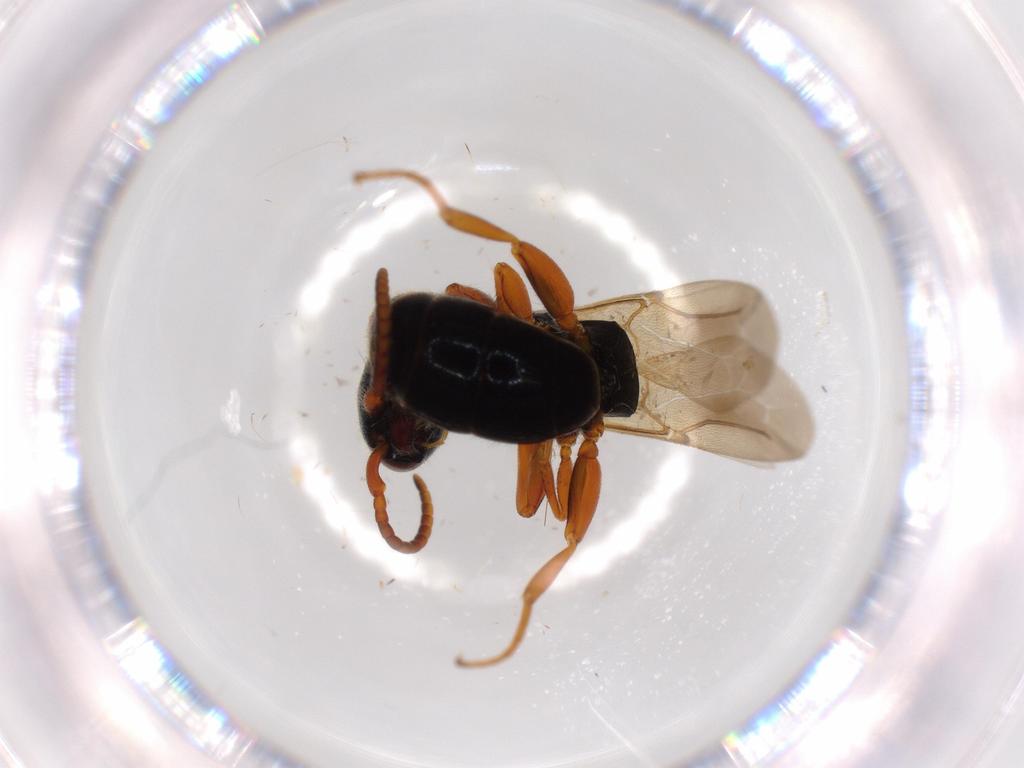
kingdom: Animalia
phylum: Arthropoda
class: Insecta
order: Hymenoptera
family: Bethylidae
